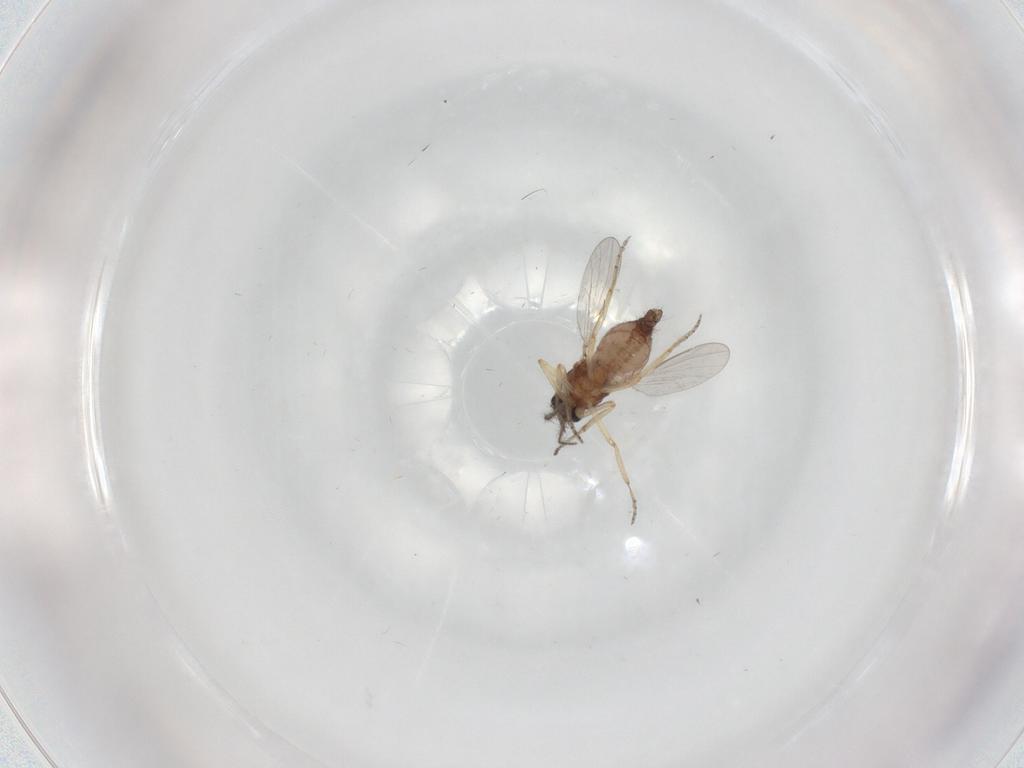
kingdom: Animalia
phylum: Arthropoda
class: Insecta
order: Diptera
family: Ceratopogonidae
